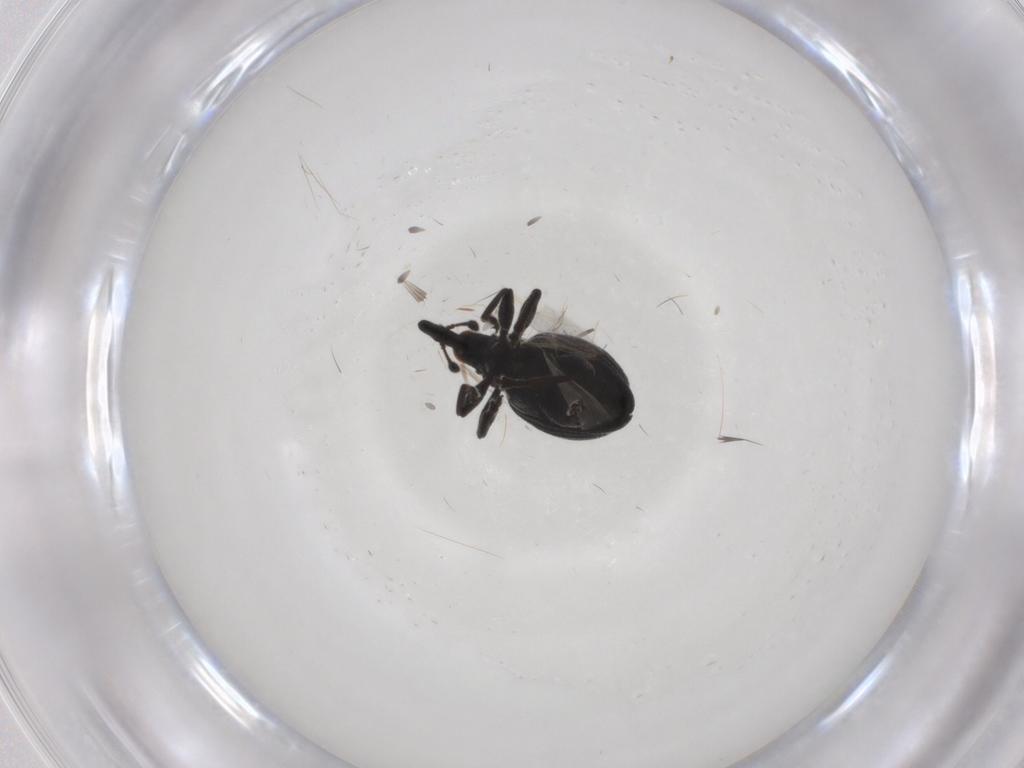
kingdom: Animalia
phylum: Arthropoda
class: Insecta
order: Coleoptera
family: Brentidae
